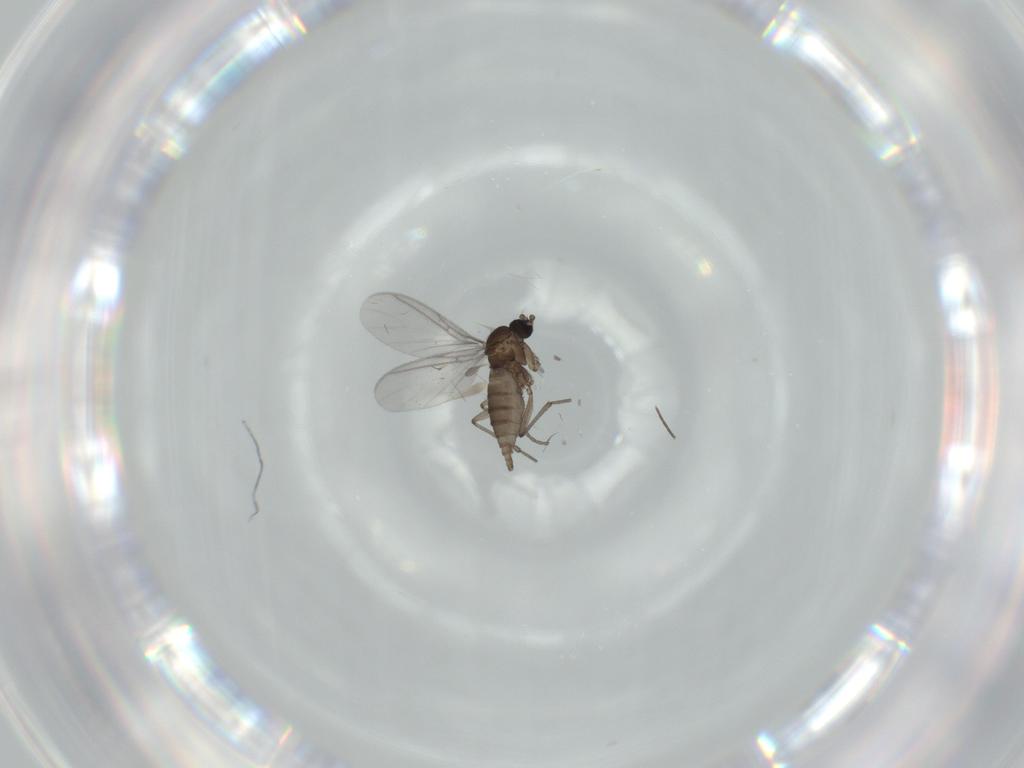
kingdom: Animalia
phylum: Arthropoda
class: Insecta
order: Diptera
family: Sciaridae
